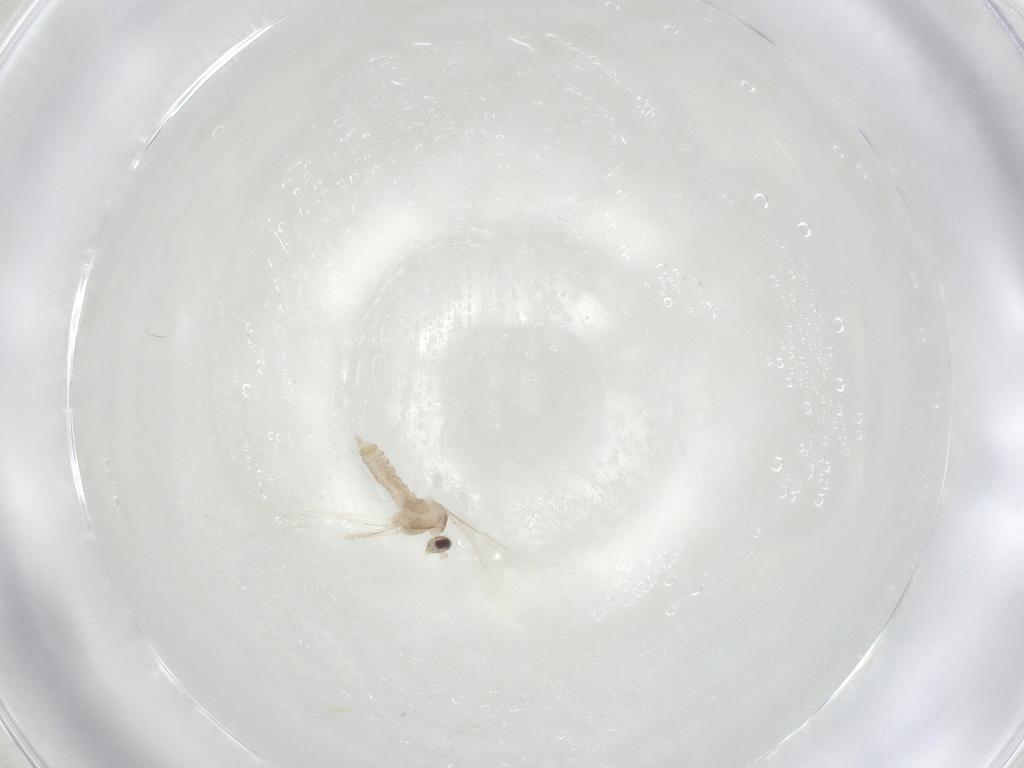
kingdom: Animalia
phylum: Arthropoda
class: Insecta
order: Diptera
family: Cecidomyiidae
